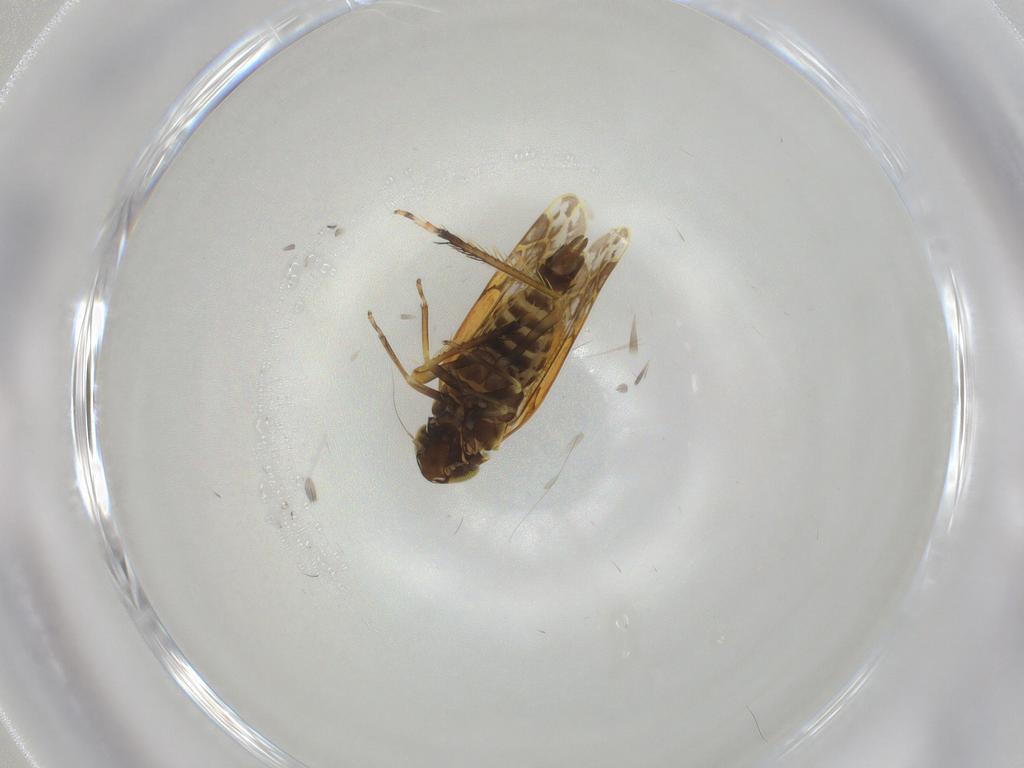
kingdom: Animalia
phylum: Arthropoda
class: Insecta
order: Hemiptera
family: Cicadellidae
